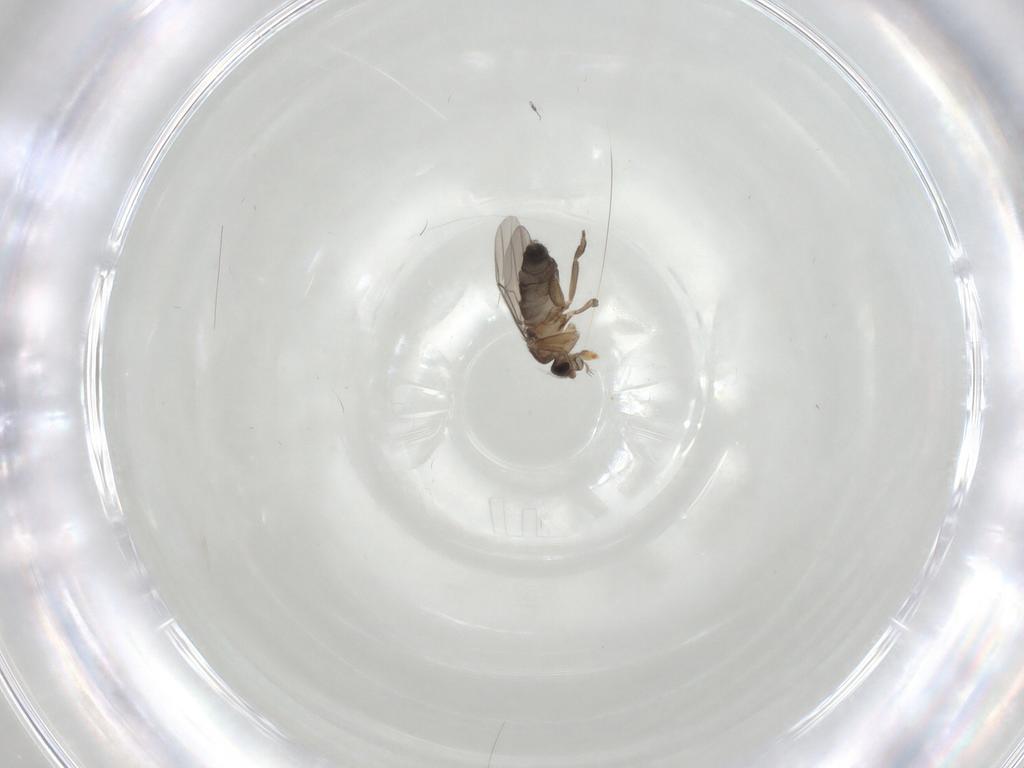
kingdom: Animalia
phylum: Arthropoda
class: Insecta
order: Diptera
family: Phoridae
